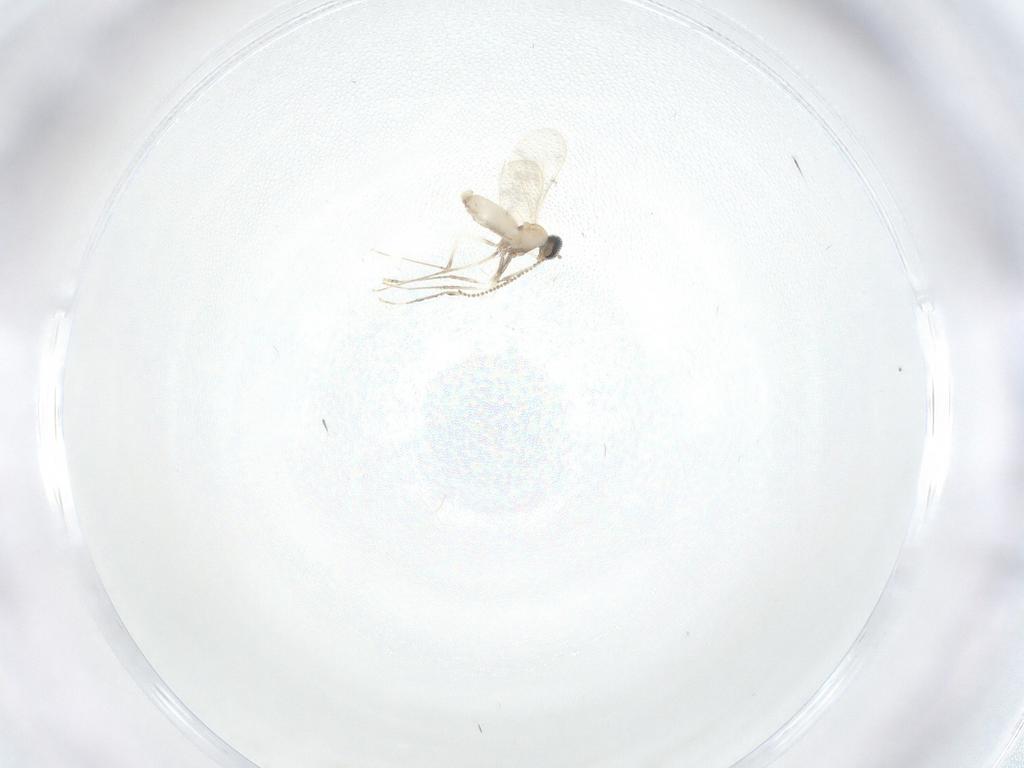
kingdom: Animalia
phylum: Arthropoda
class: Insecta
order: Diptera
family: Cecidomyiidae
